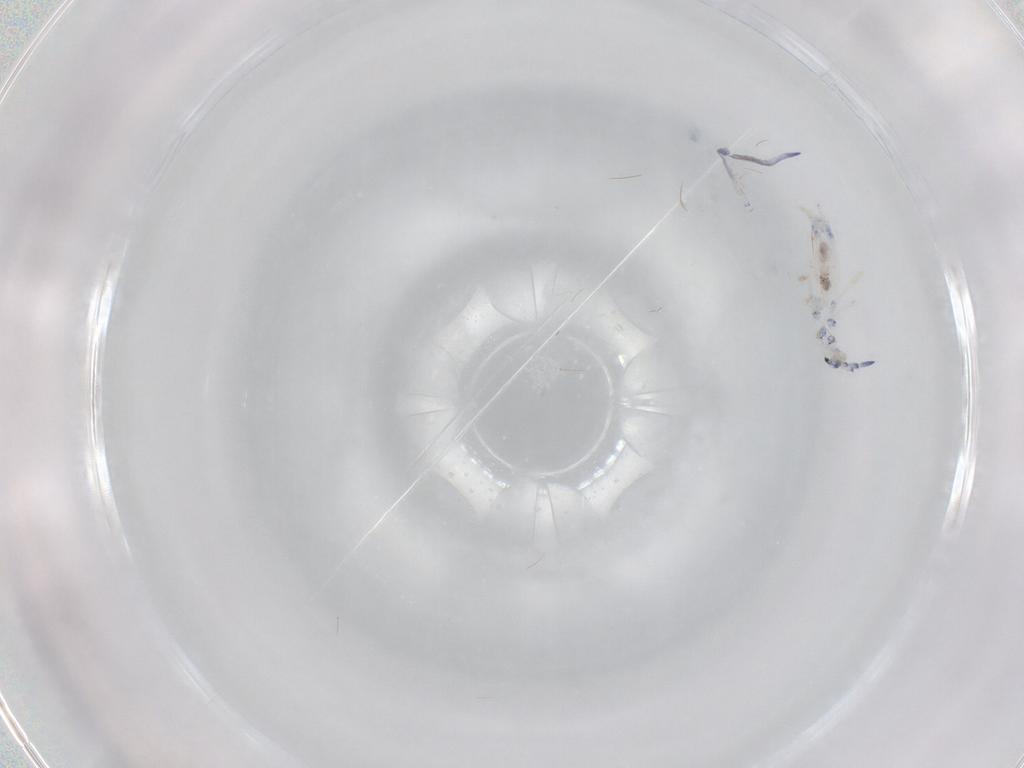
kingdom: Animalia
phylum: Arthropoda
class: Collembola
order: Entomobryomorpha
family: Entomobryidae
